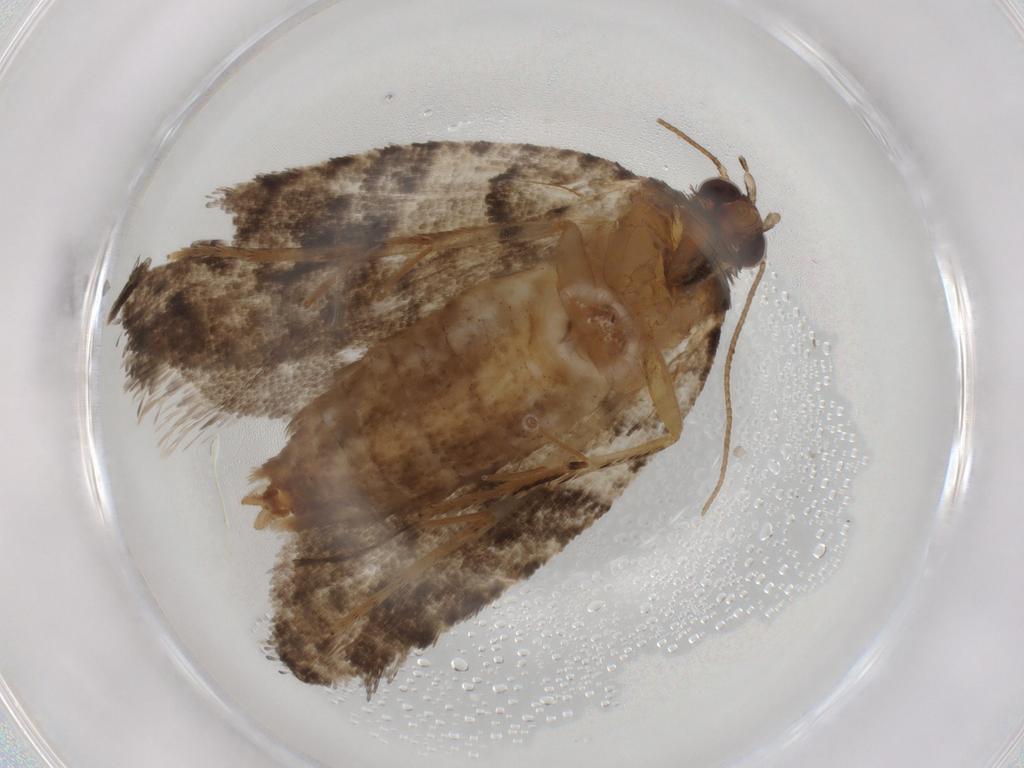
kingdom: Animalia
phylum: Arthropoda
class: Insecta
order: Lepidoptera
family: Tortricidae
